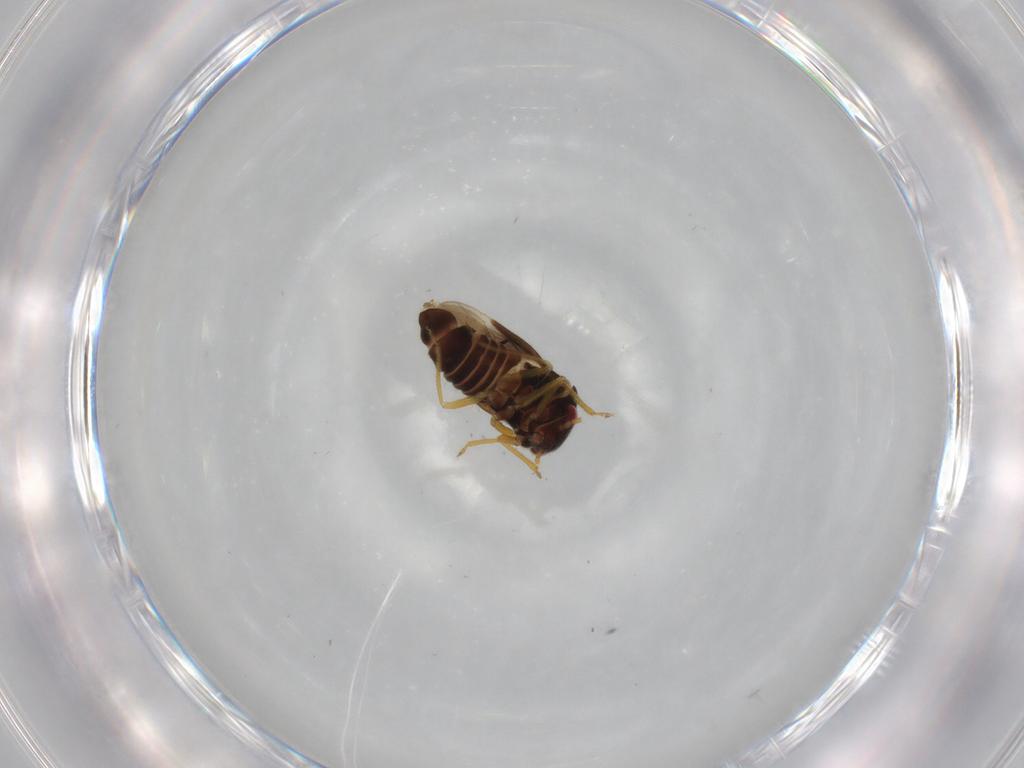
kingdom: Animalia
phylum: Arthropoda
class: Insecta
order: Hemiptera
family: Schizopteridae
